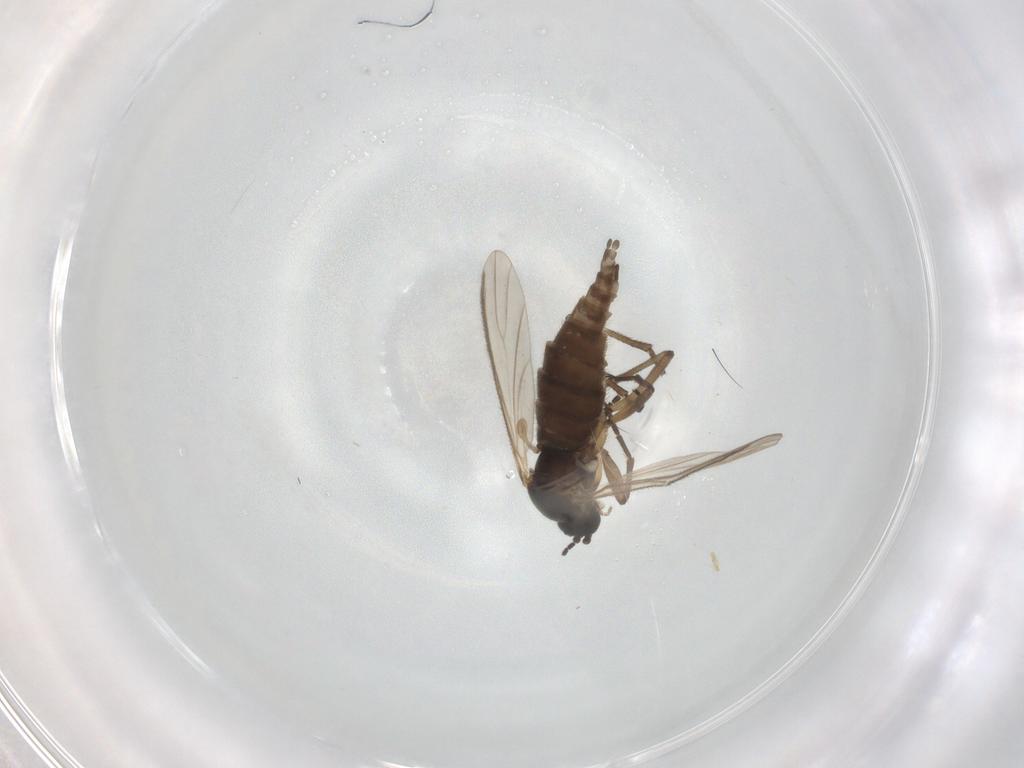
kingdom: Animalia
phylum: Arthropoda
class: Insecta
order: Diptera
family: Sciaridae
